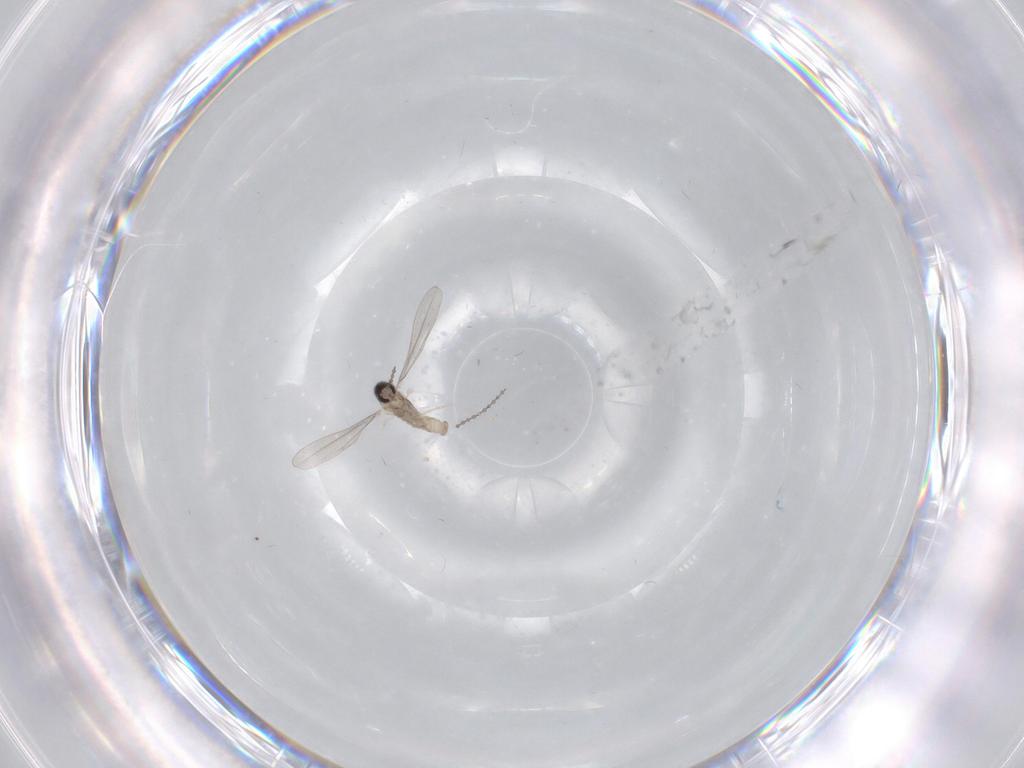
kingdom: Animalia
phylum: Arthropoda
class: Insecta
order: Diptera
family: Cecidomyiidae
